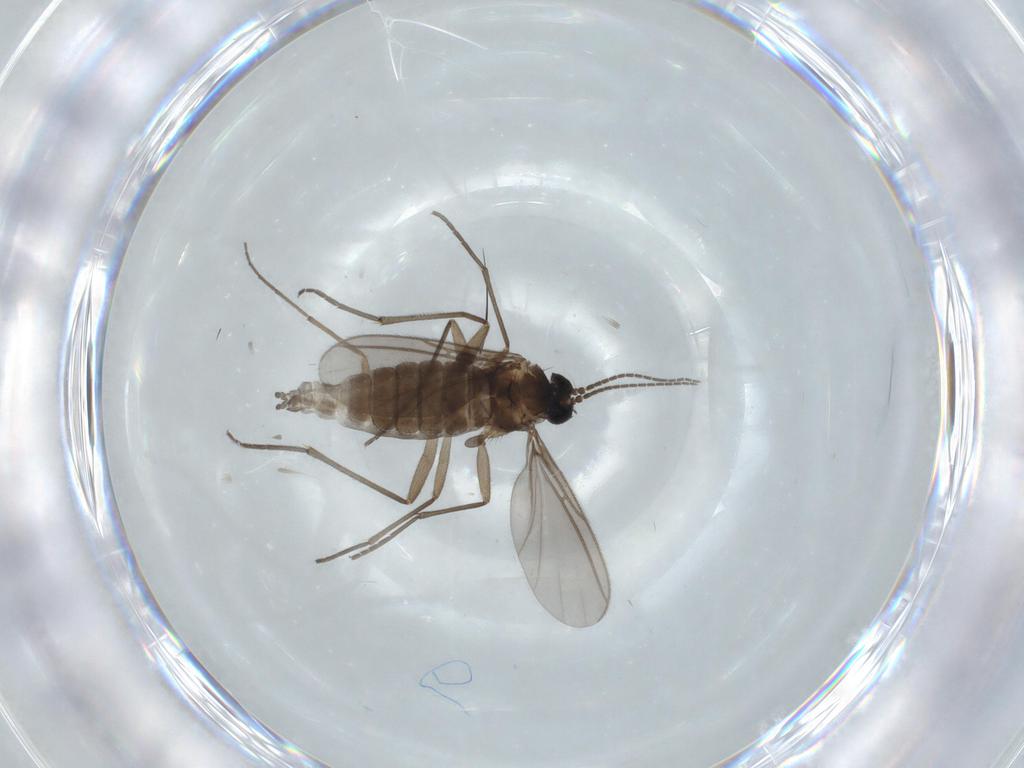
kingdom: Animalia
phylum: Arthropoda
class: Insecta
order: Diptera
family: Sciaridae
